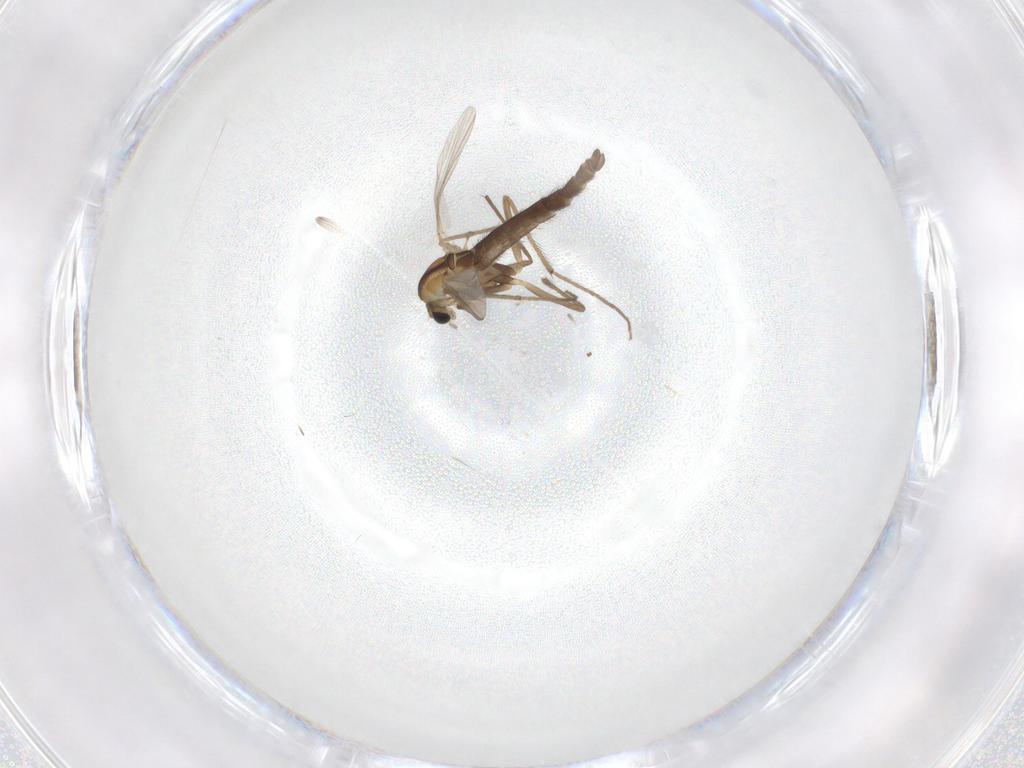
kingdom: Animalia
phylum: Arthropoda
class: Insecta
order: Diptera
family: Chironomidae
